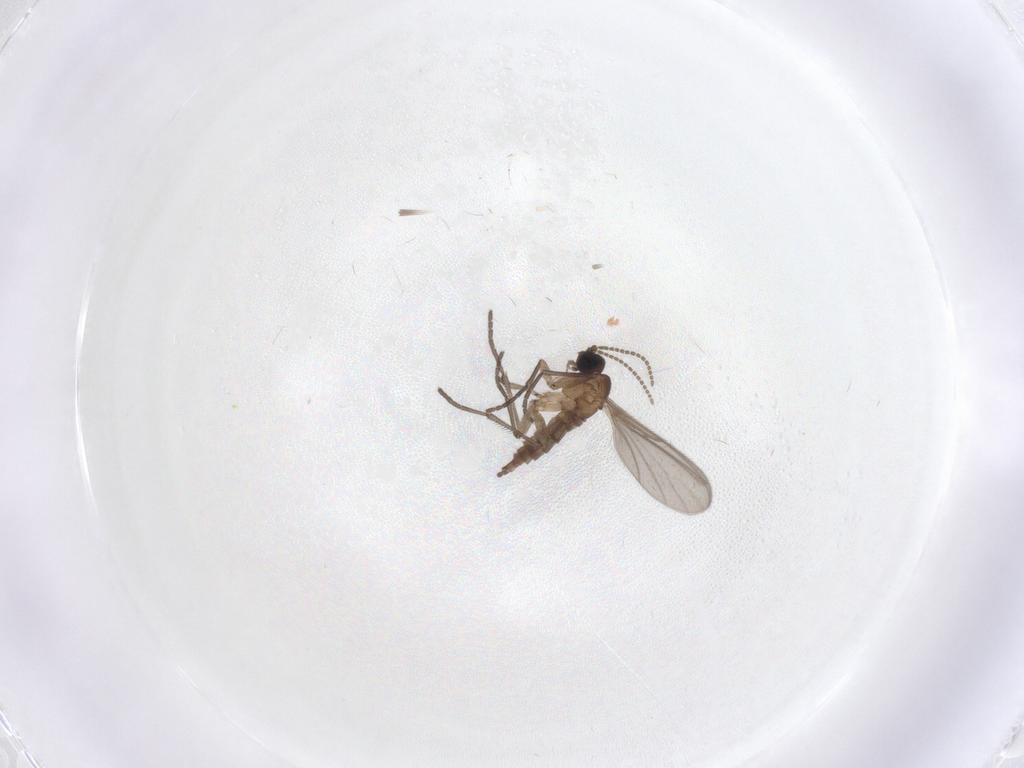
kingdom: Animalia
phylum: Arthropoda
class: Insecta
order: Diptera
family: Sciaridae
